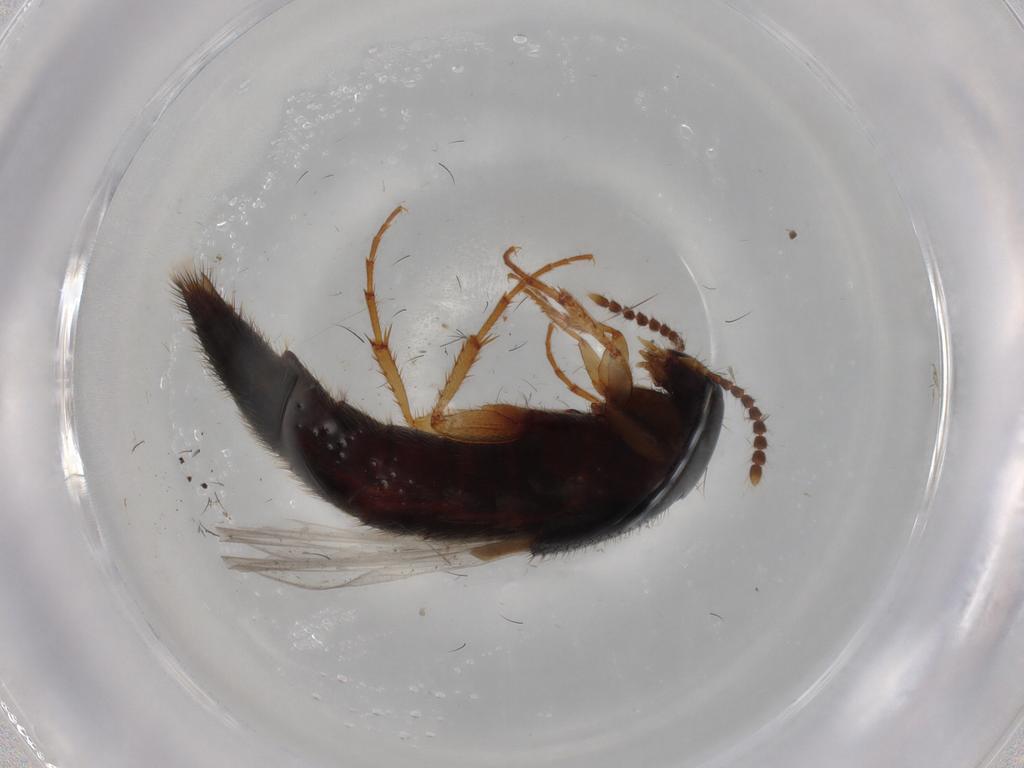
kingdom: Animalia
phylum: Arthropoda
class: Insecta
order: Coleoptera
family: Staphylinidae
